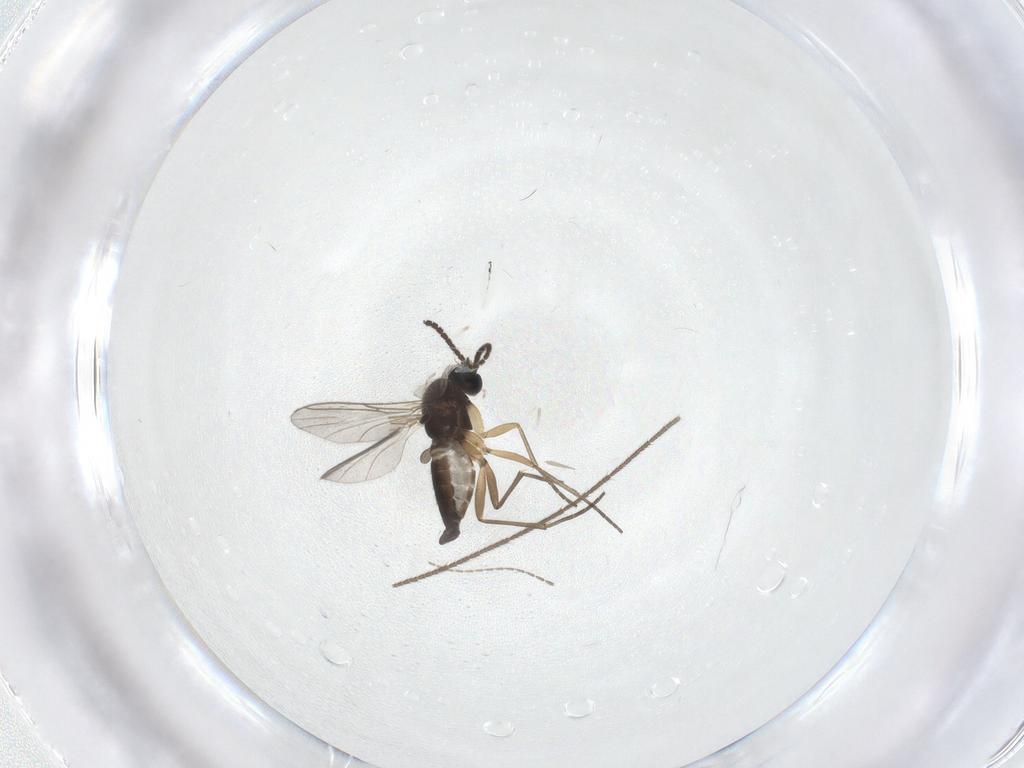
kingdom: Animalia
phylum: Arthropoda
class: Insecta
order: Diptera
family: Sciaridae
